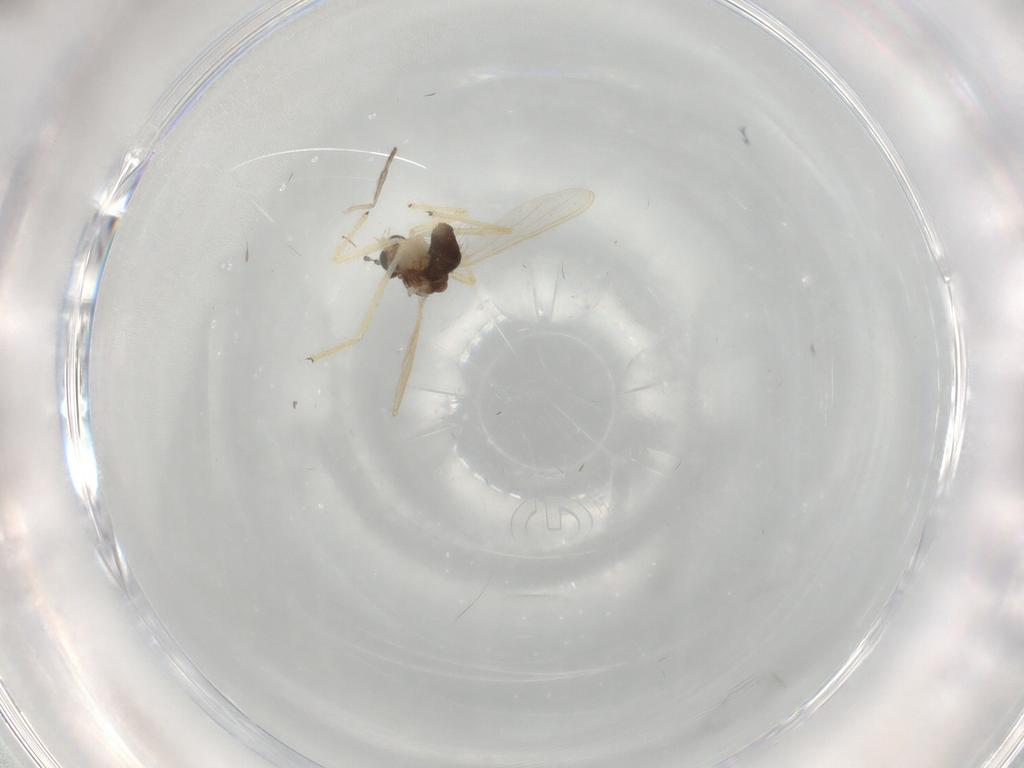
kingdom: Animalia
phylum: Arthropoda
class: Insecta
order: Diptera
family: Chironomidae
